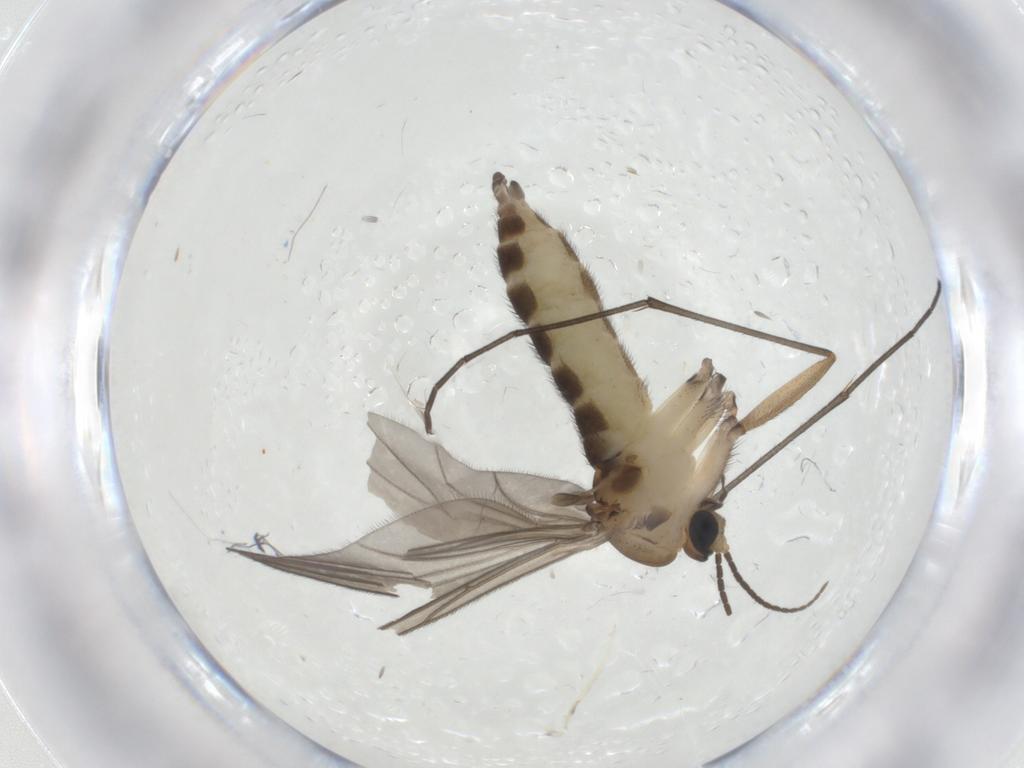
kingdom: Animalia
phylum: Arthropoda
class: Insecta
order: Diptera
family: Sciaridae
